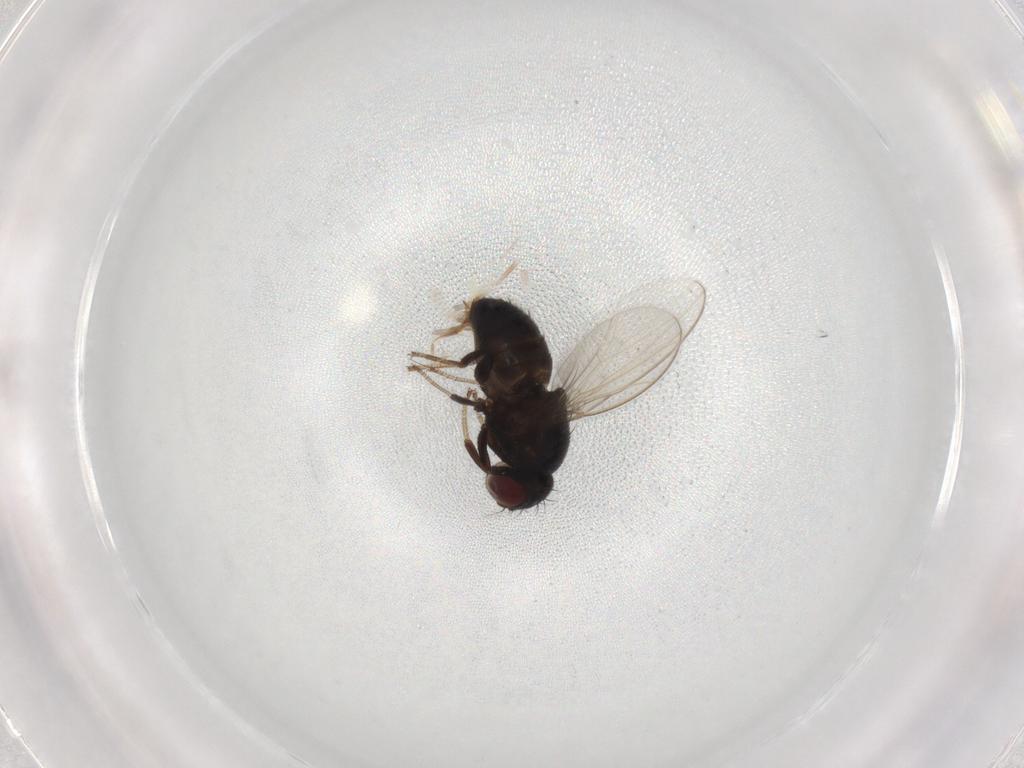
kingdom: Animalia
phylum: Arthropoda
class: Insecta
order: Diptera
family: Drosophilidae
